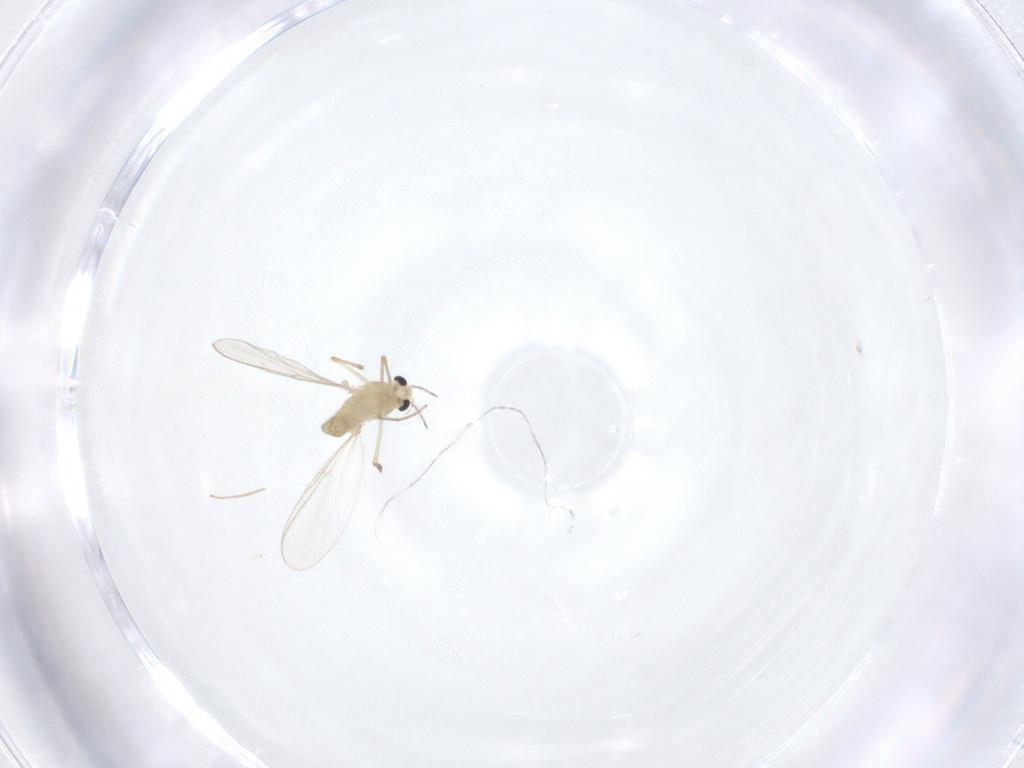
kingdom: Animalia
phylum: Arthropoda
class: Insecta
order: Diptera
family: Chironomidae
